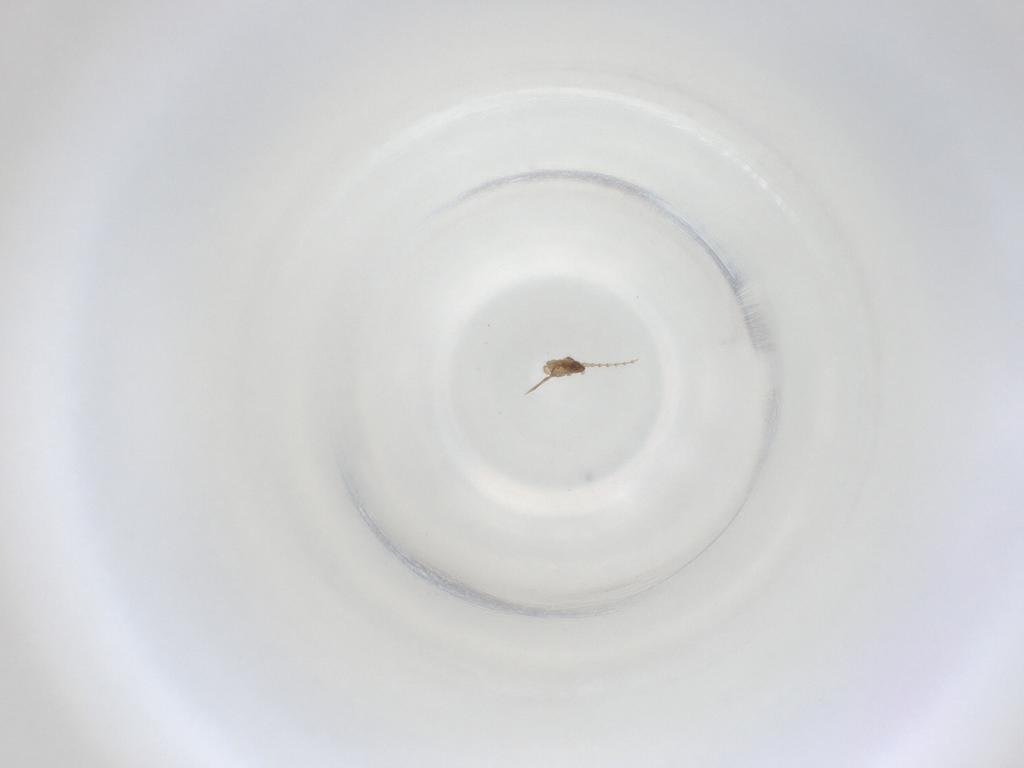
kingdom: Animalia
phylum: Arthropoda
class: Insecta
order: Diptera
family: Cecidomyiidae
